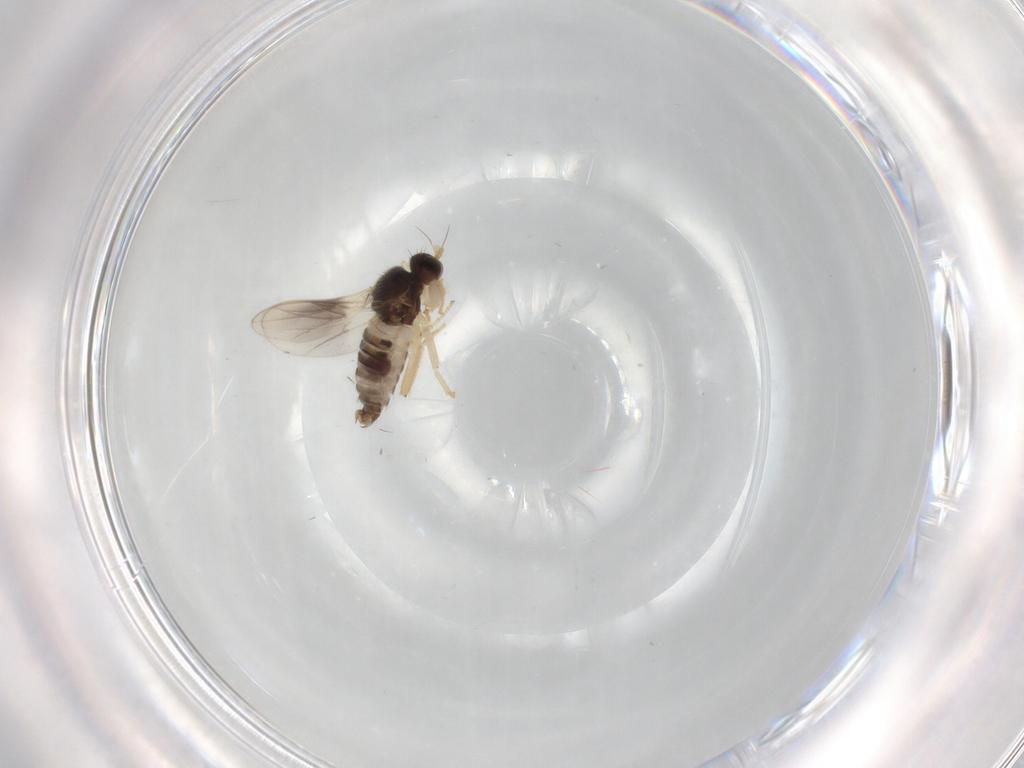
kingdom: Animalia
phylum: Arthropoda
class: Insecta
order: Diptera
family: Hybotidae
